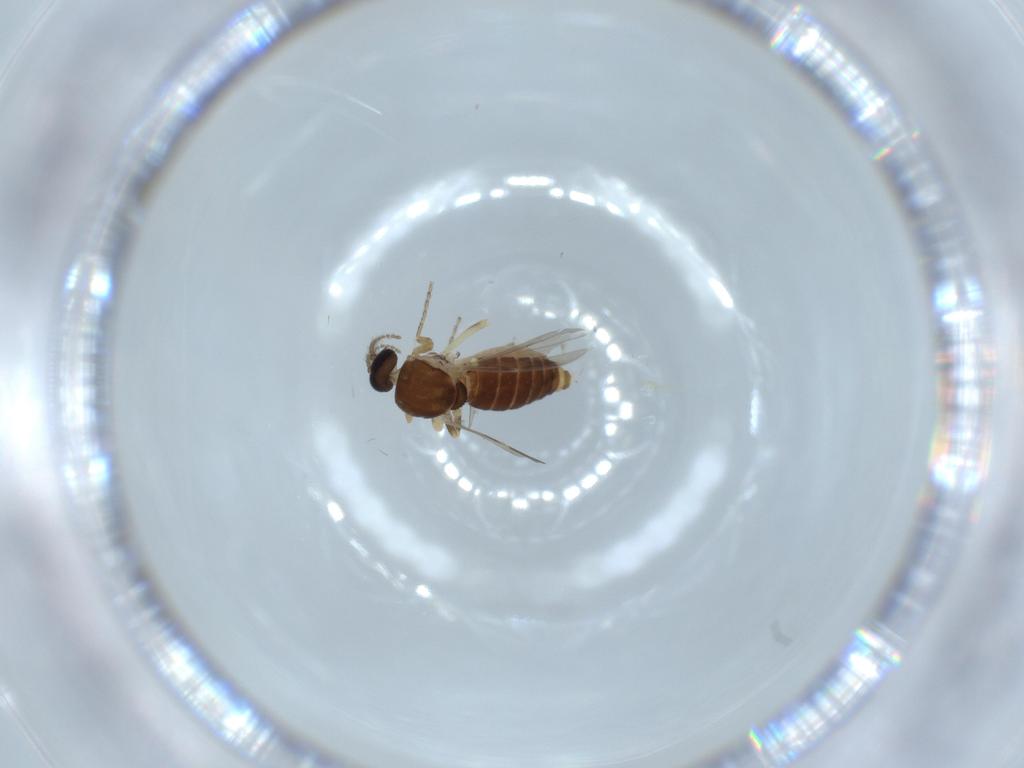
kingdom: Animalia
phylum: Arthropoda
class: Insecta
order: Diptera
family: Ceratopogonidae
